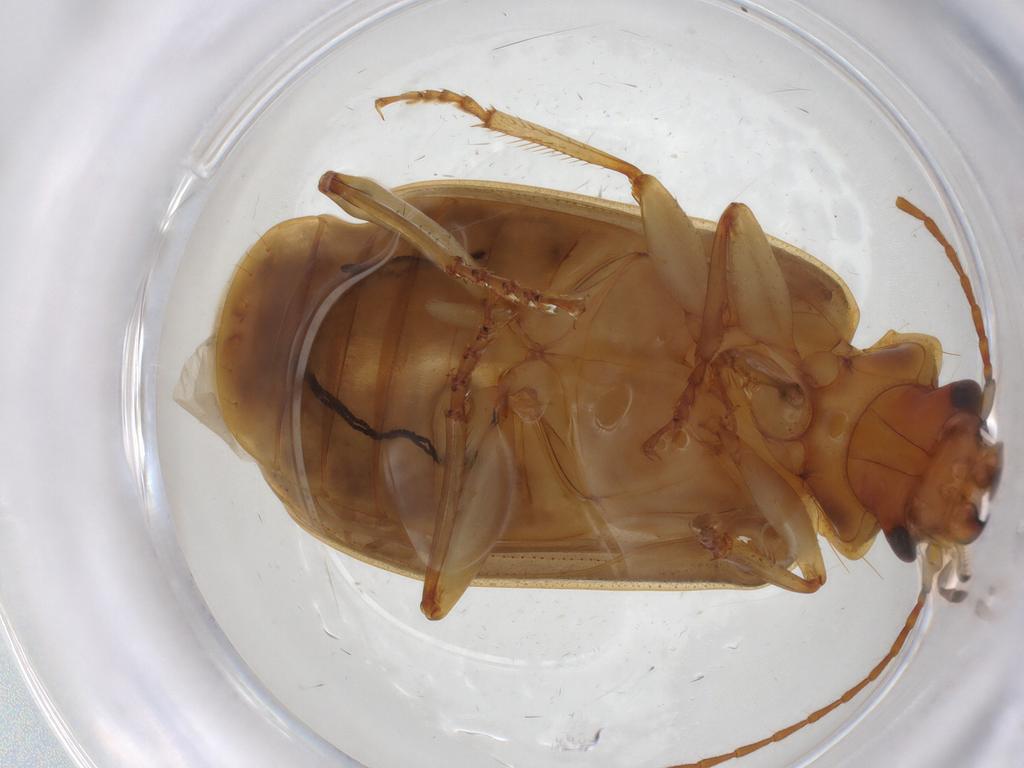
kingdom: Animalia
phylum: Arthropoda
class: Insecta
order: Coleoptera
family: Carabidae
